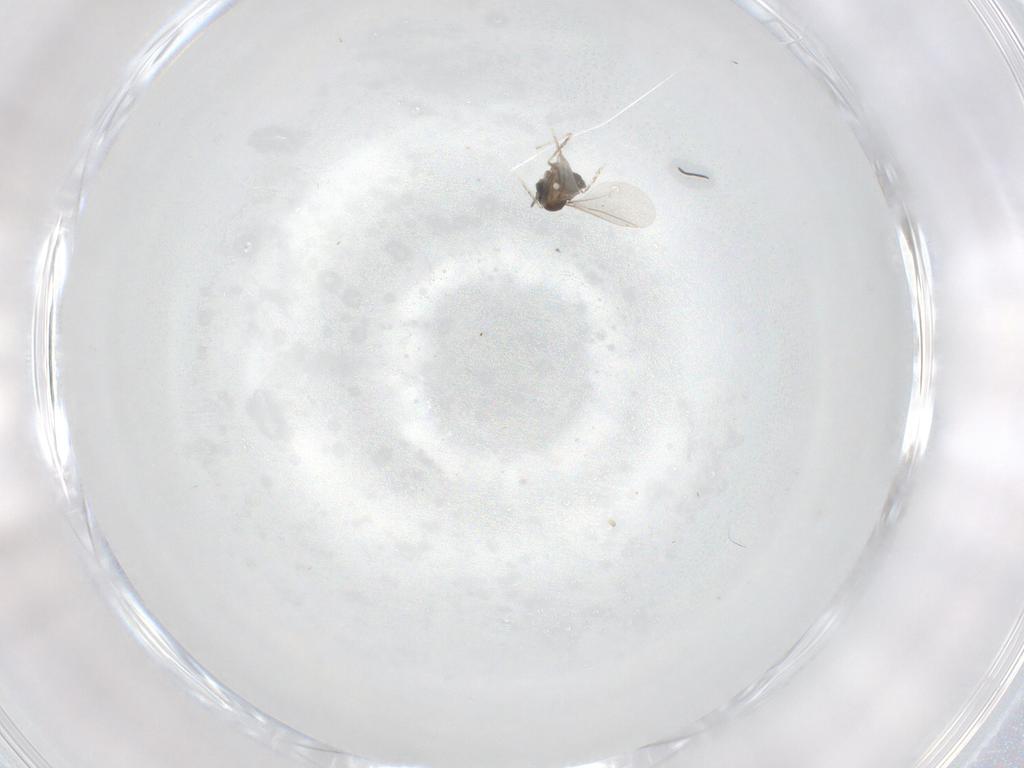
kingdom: Animalia
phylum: Arthropoda
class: Insecta
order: Diptera
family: Cecidomyiidae
